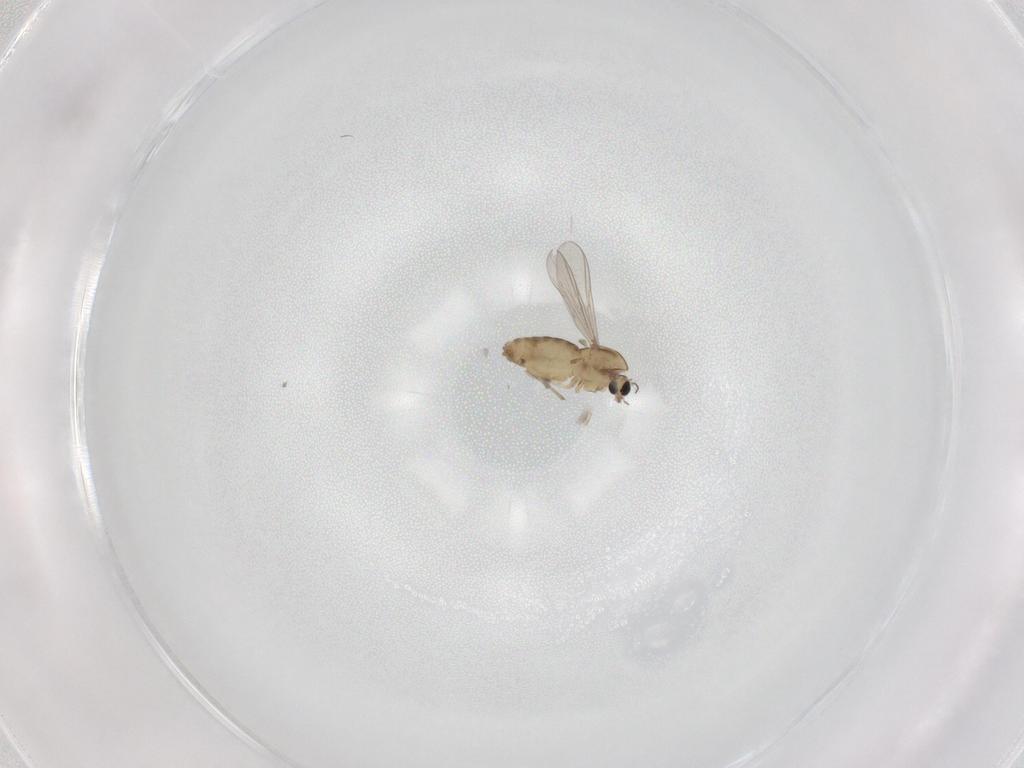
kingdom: Animalia
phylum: Arthropoda
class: Insecta
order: Diptera
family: Chironomidae
